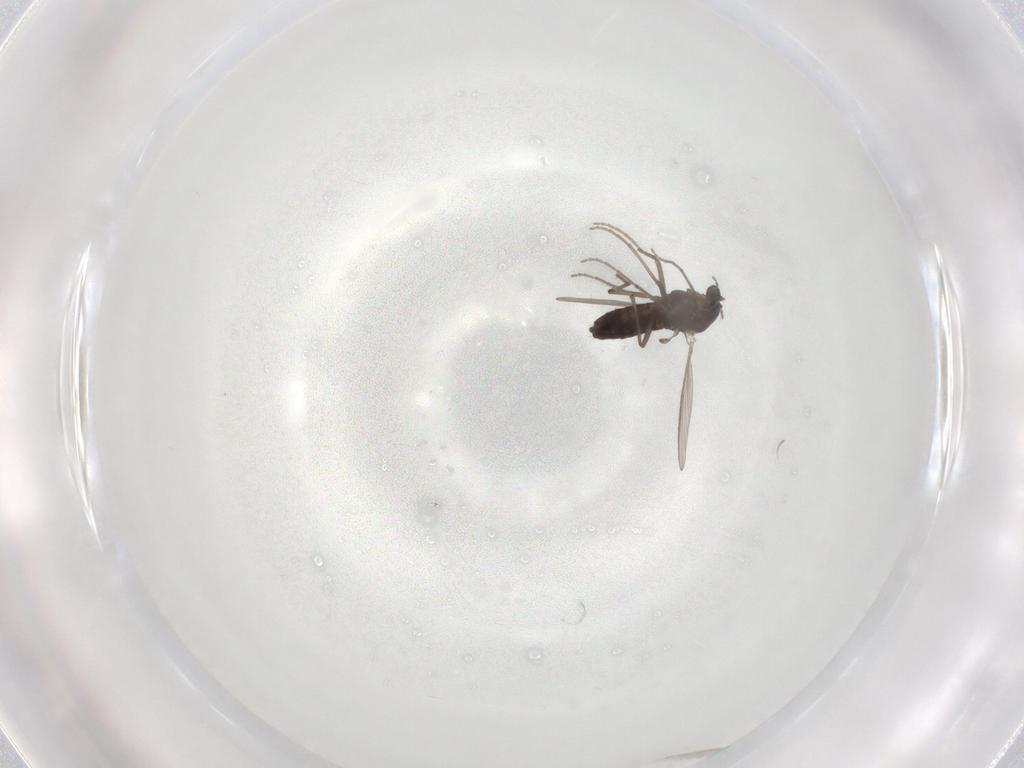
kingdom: Animalia
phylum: Arthropoda
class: Insecta
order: Diptera
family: Chironomidae
